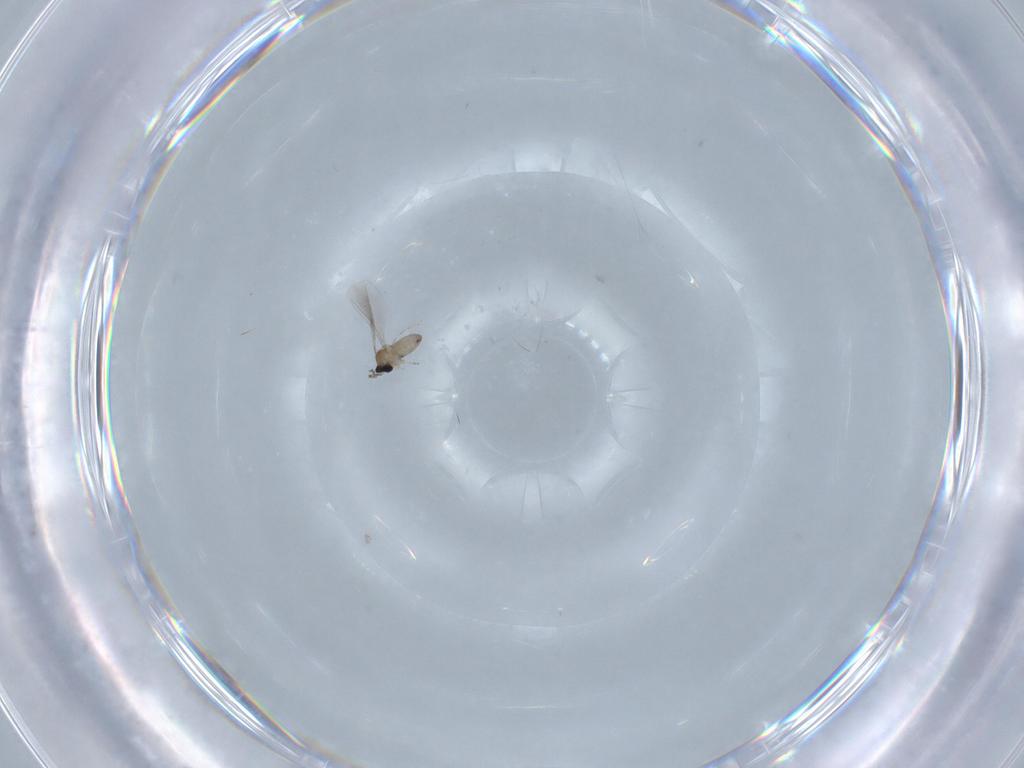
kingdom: Animalia
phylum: Arthropoda
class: Insecta
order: Diptera
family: Cecidomyiidae
